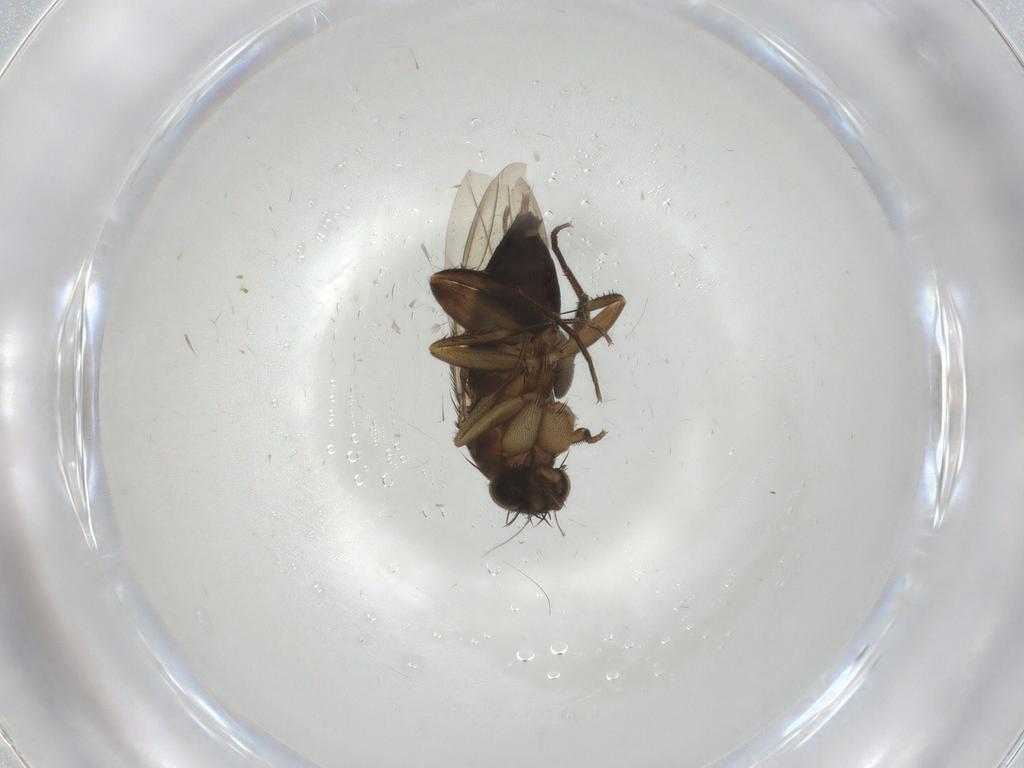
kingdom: Animalia
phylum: Arthropoda
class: Insecta
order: Diptera
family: Phoridae
